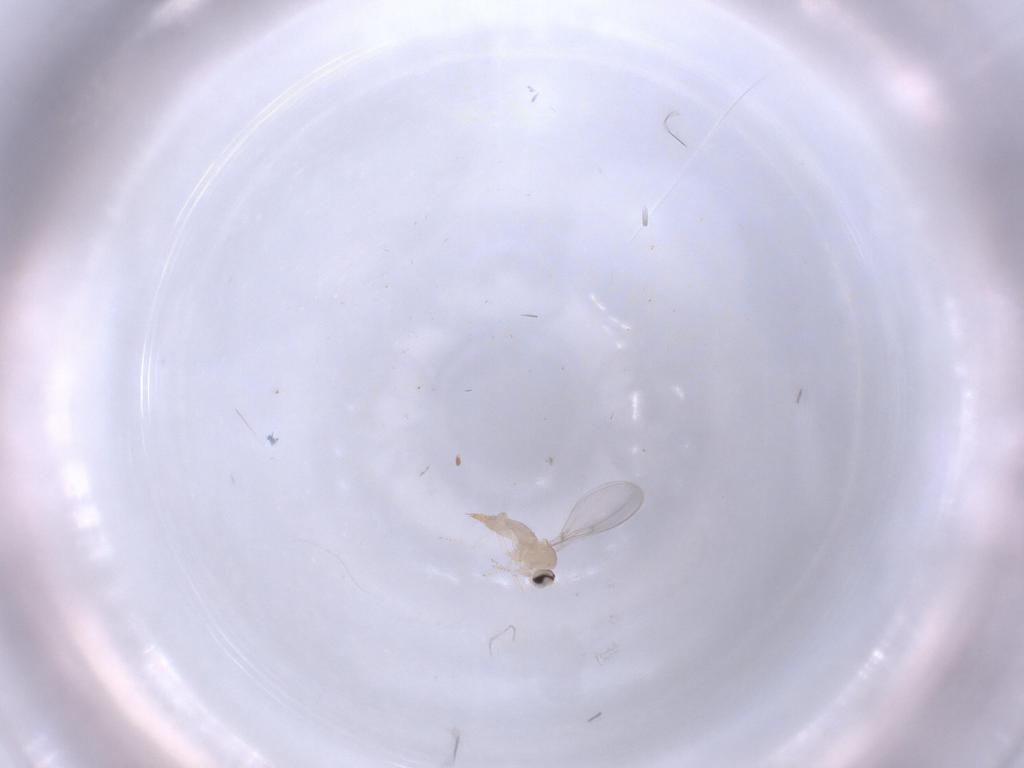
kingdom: Animalia
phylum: Arthropoda
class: Insecta
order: Diptera
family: Cecidomyiidae
